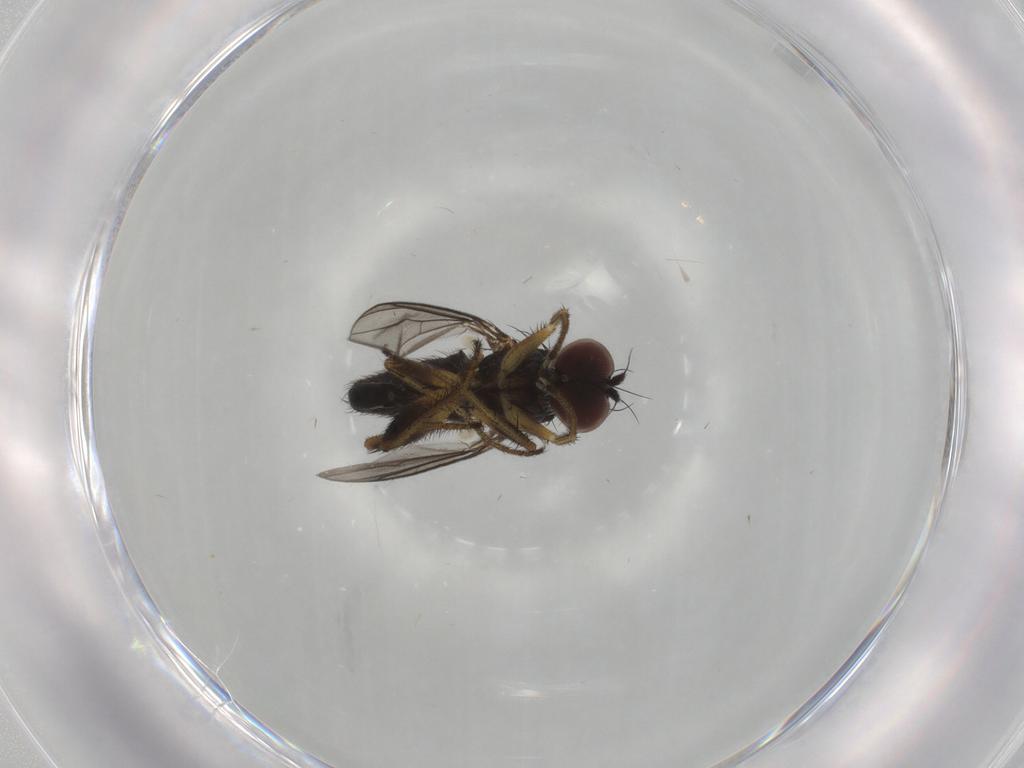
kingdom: Animalia
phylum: Arthropoda
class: Insecta
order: Diptera
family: Dolichopodidae
